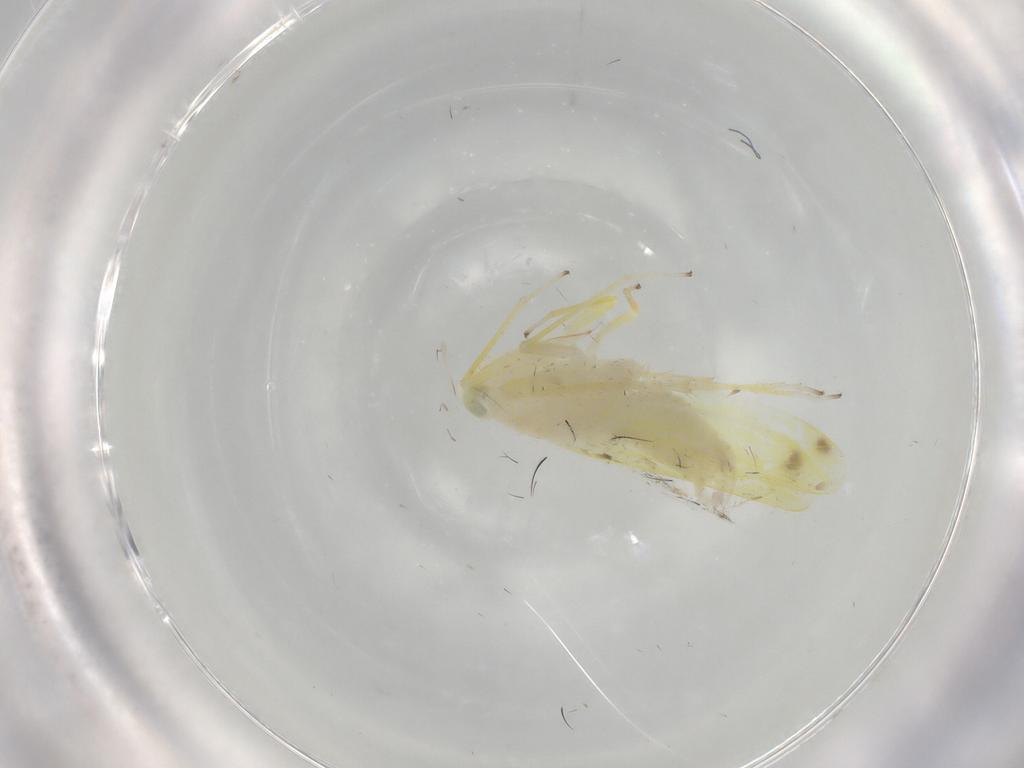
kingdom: Animalia
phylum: Arthropoda
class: Insecta
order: Hemiptera
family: Cicadellidae
